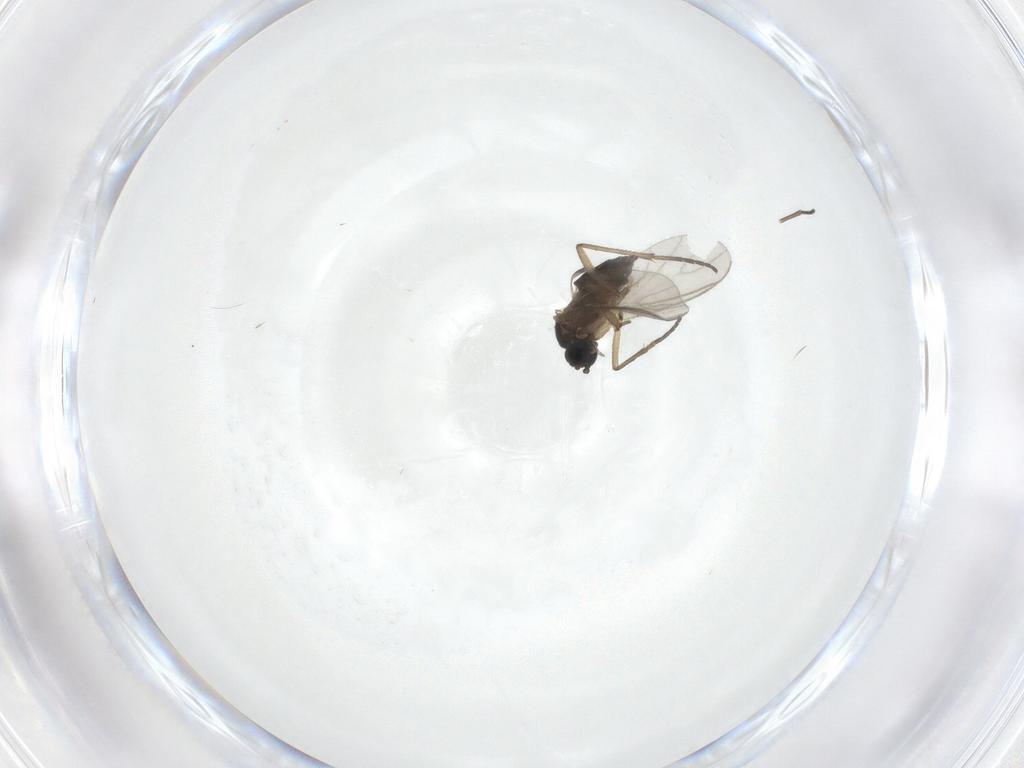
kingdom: Animalia
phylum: Arthropoda
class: Insecta
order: Diptera
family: Sciaridae
